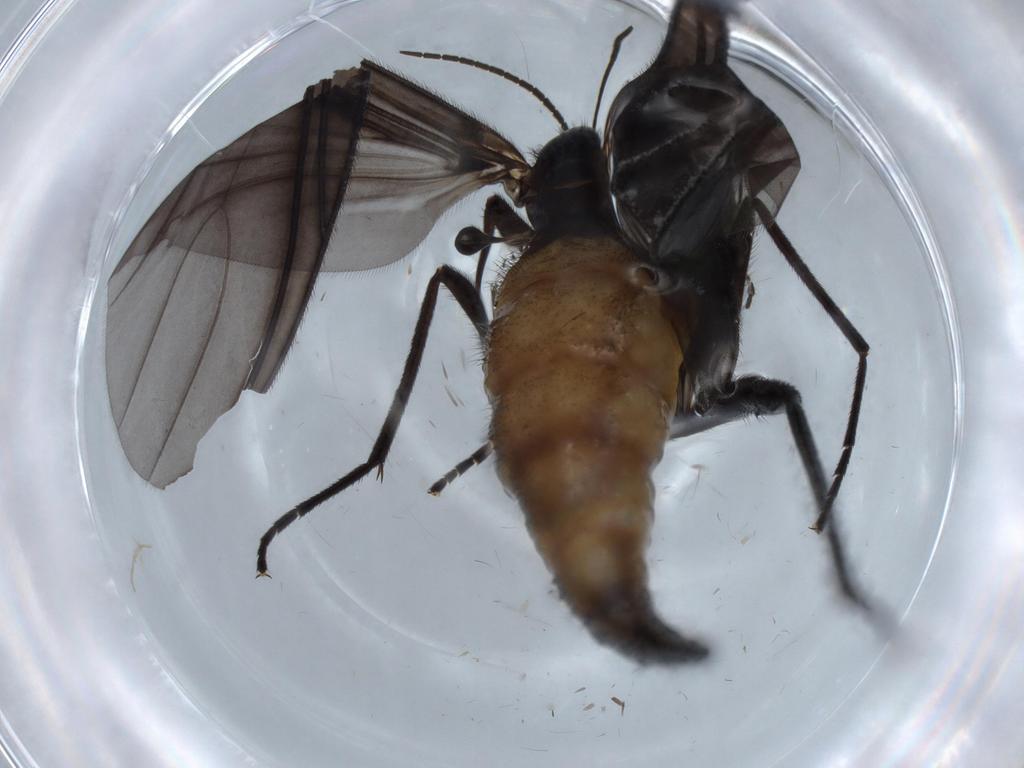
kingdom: Animalia
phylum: Arthropoda
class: Insecta
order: Diptera
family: Sciaridae
